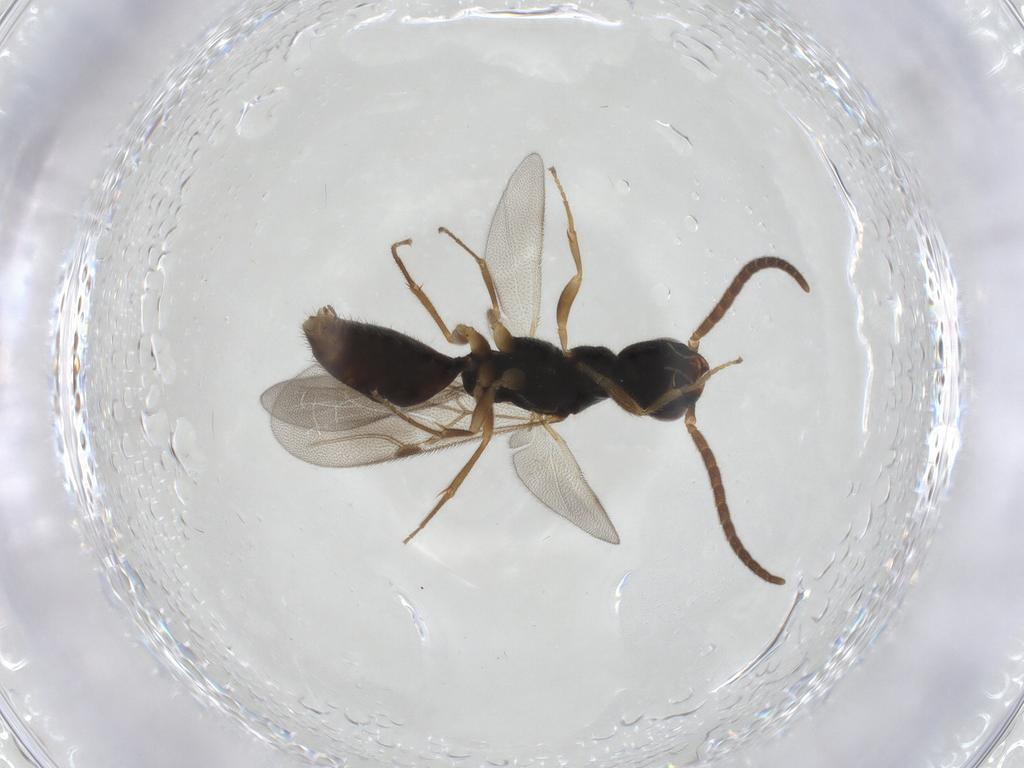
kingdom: Animalia
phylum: Arthropoda
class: Insecta
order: Hymenoptera
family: Bethylidae
